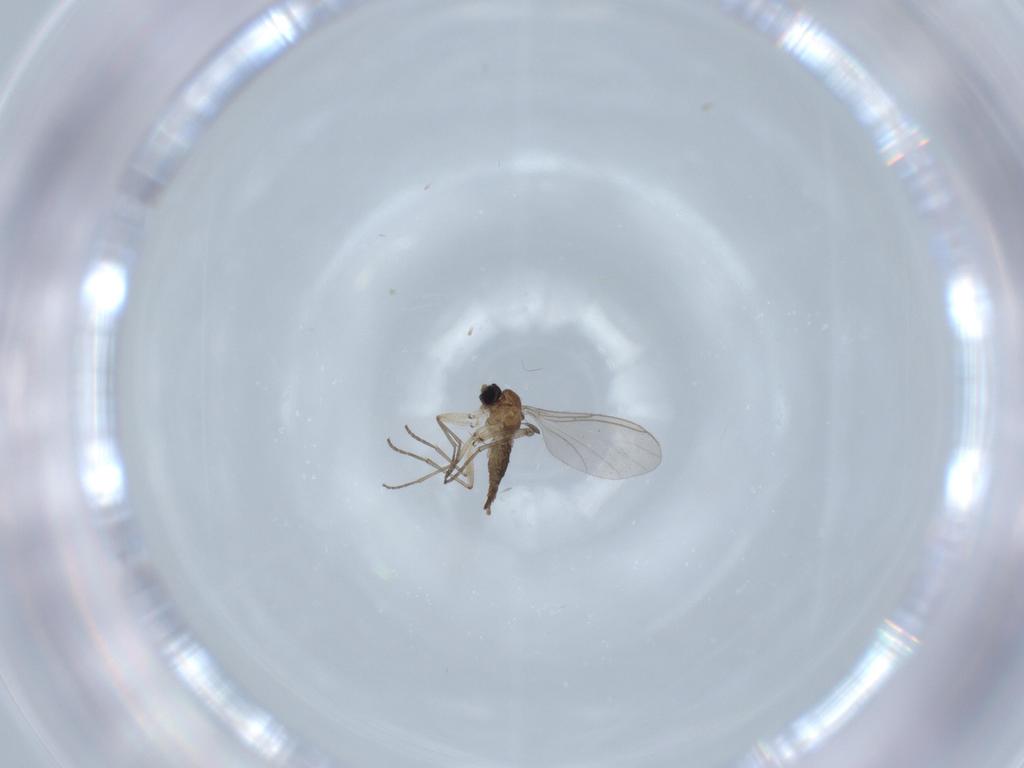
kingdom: Animalia
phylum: Arthropoda
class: Insecta
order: Diptera
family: Sciaridae
